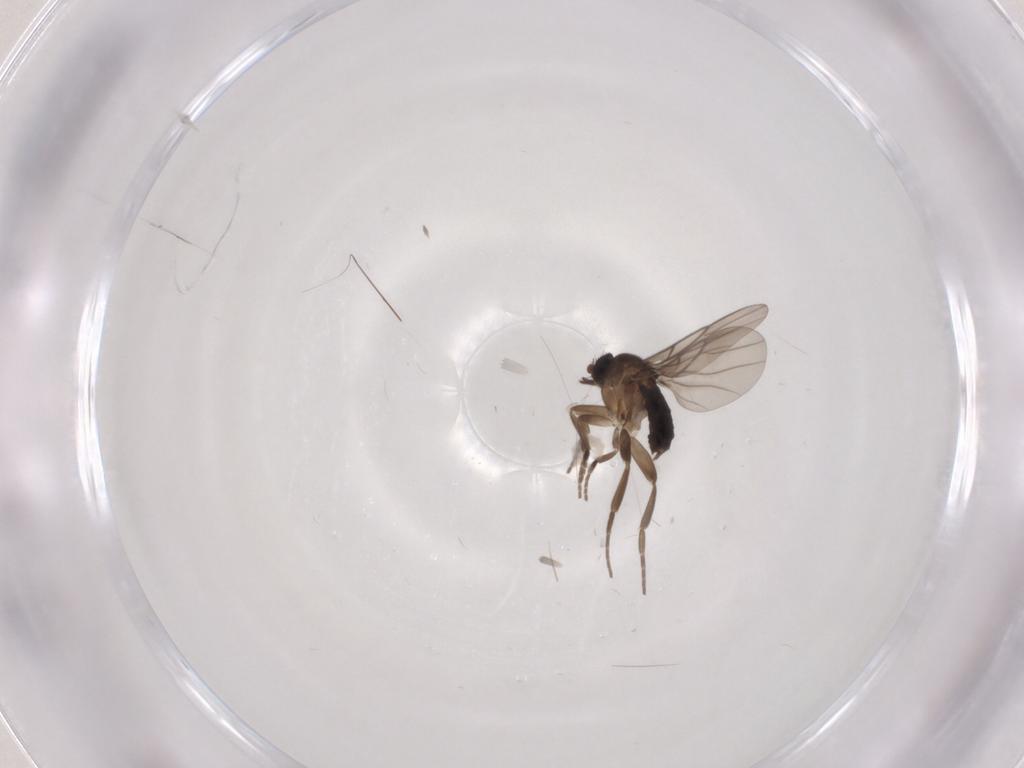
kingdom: Animalia
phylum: Arthropoda
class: Insecta
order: Diptera
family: Phoridae
